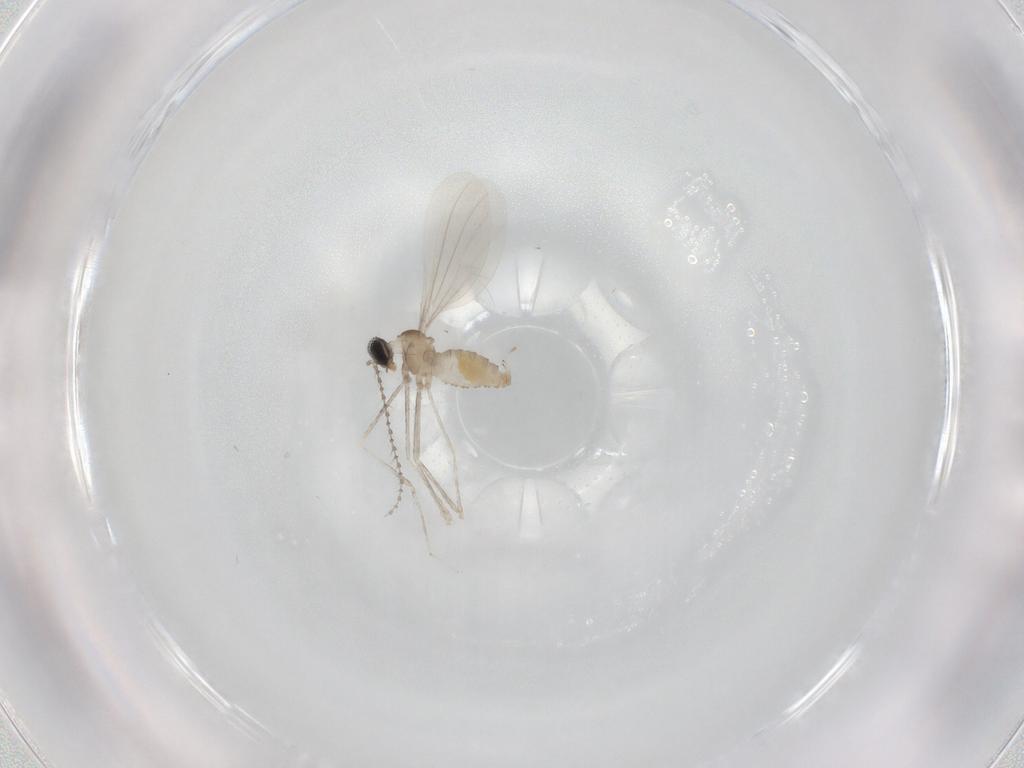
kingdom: Animalia
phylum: Arthropoda
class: Insecta
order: Diptera
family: Cecidomyiidae
